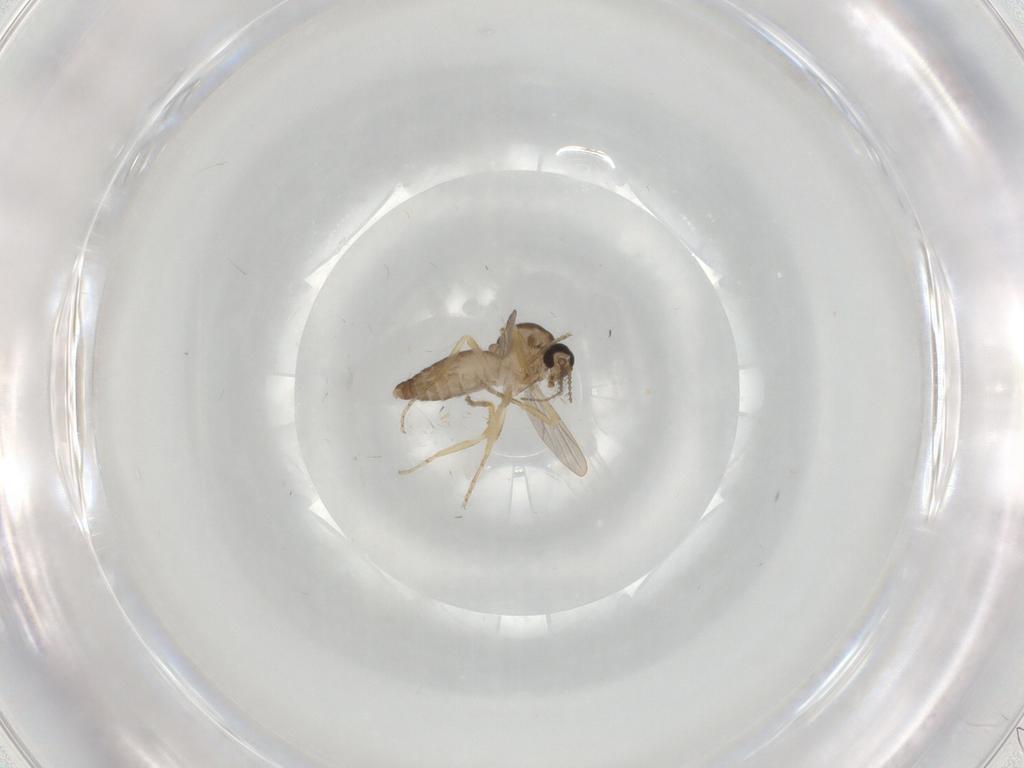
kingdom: Animalia
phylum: Arthropoda
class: Insecta
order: Diptera
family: Ceratopogonidae
